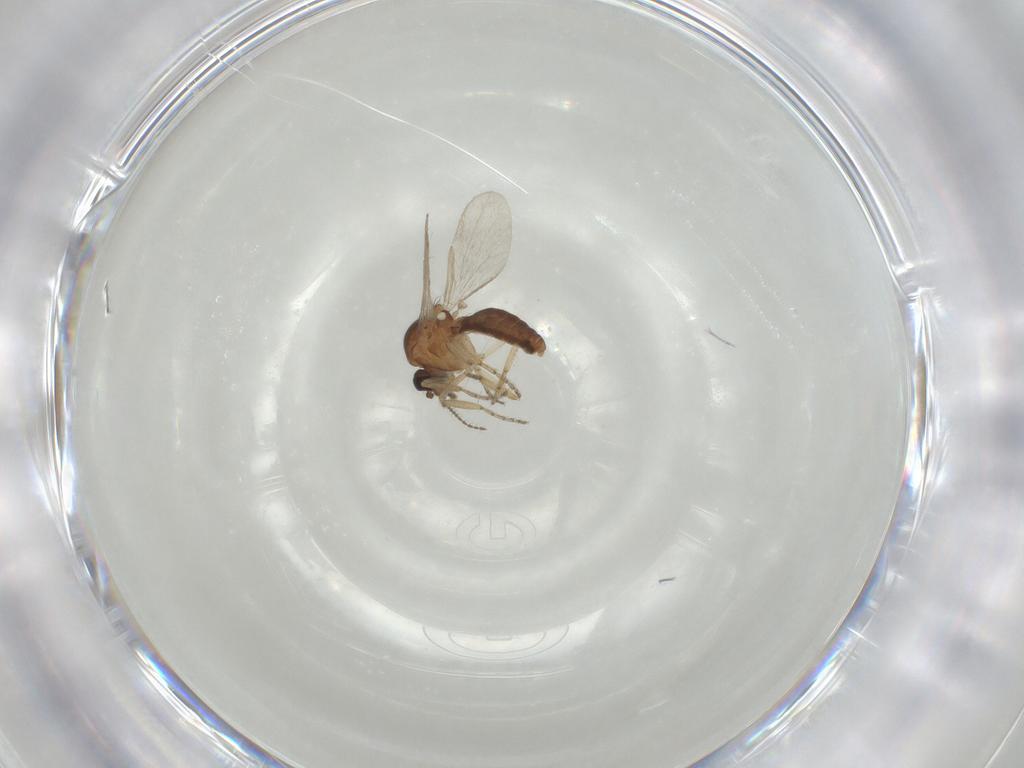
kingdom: Animalia
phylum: Arthropoda
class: Insecta
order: Diptera
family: Ceratopogonidae
